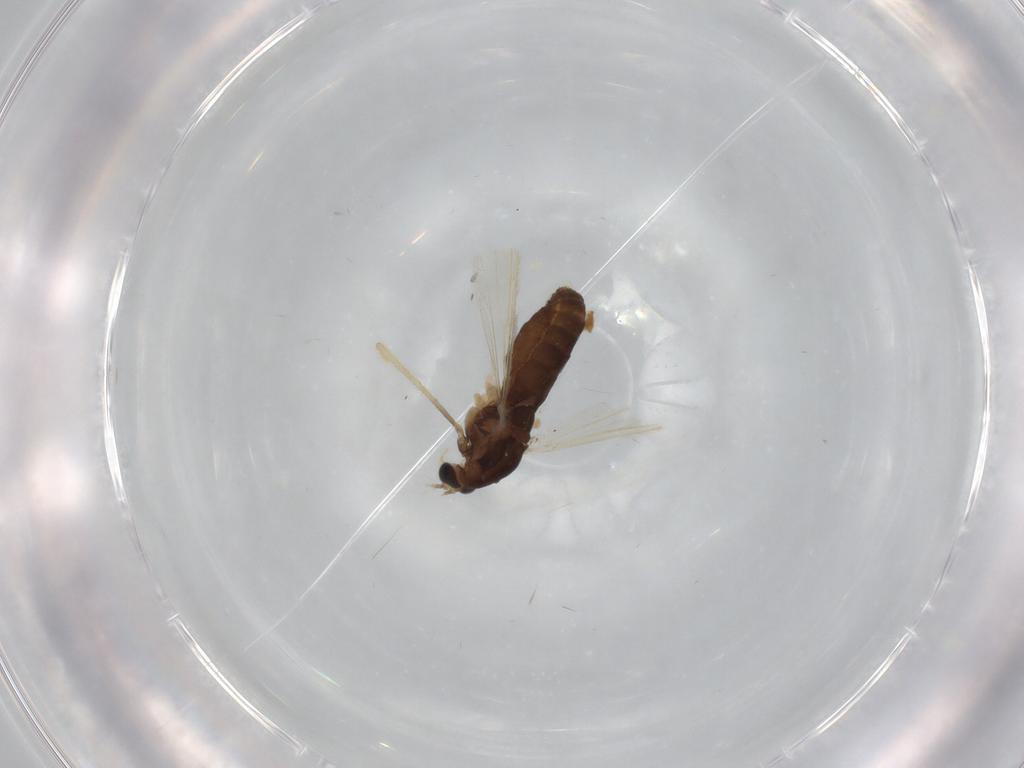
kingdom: Animalia
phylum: Arthropoda
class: Insecta
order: Diptera
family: Chironomidae
